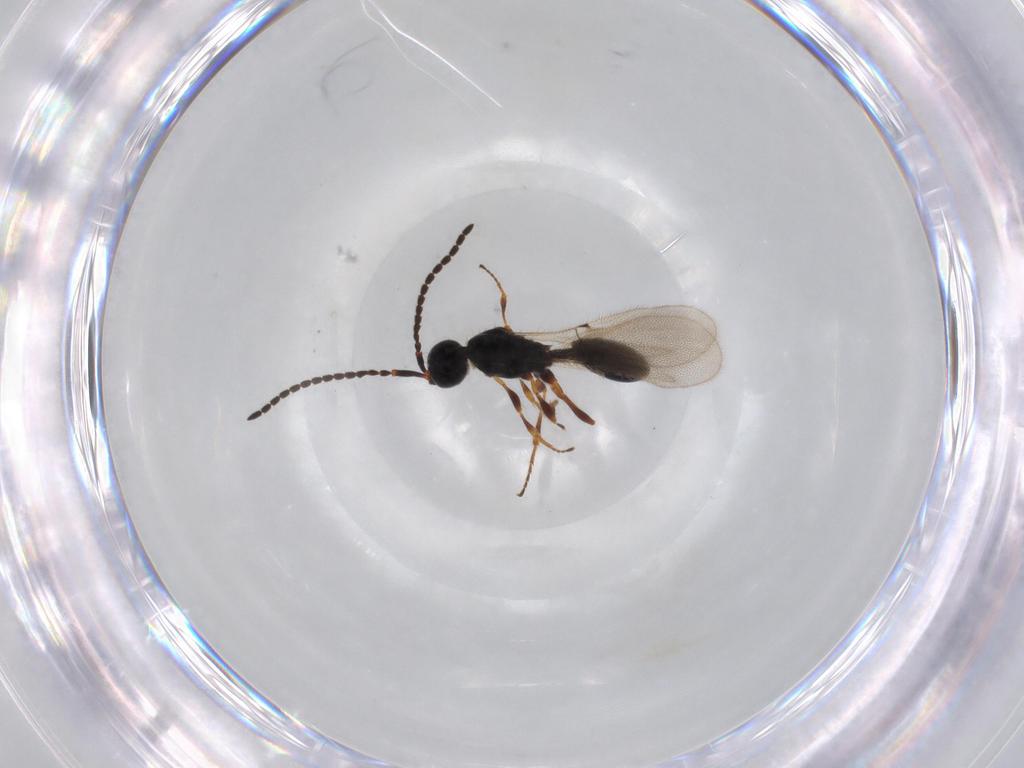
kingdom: Animalia
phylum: Arthropoda
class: Insecta
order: Hymenoptera
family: Diapriidae
